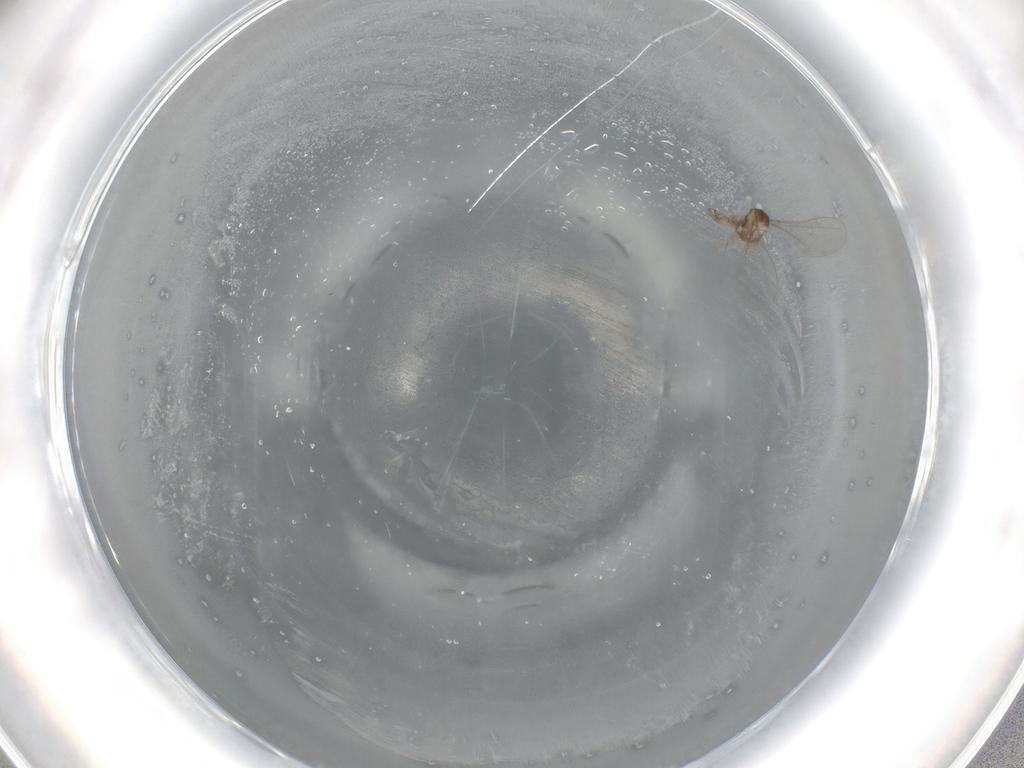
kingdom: Animalia
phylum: Arthropoda
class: Insecta
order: Diptera
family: Cecidomyiidae
